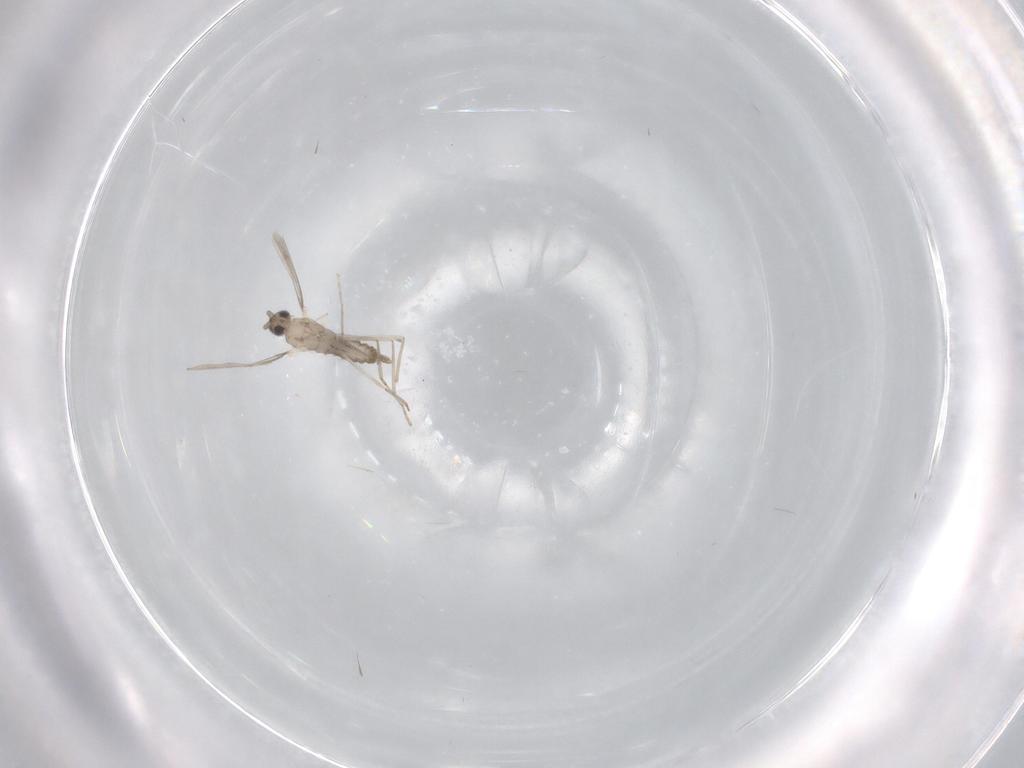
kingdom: Animalia
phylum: Arthropoda
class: Insecta
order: Diptera
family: Cecidomyiidae
